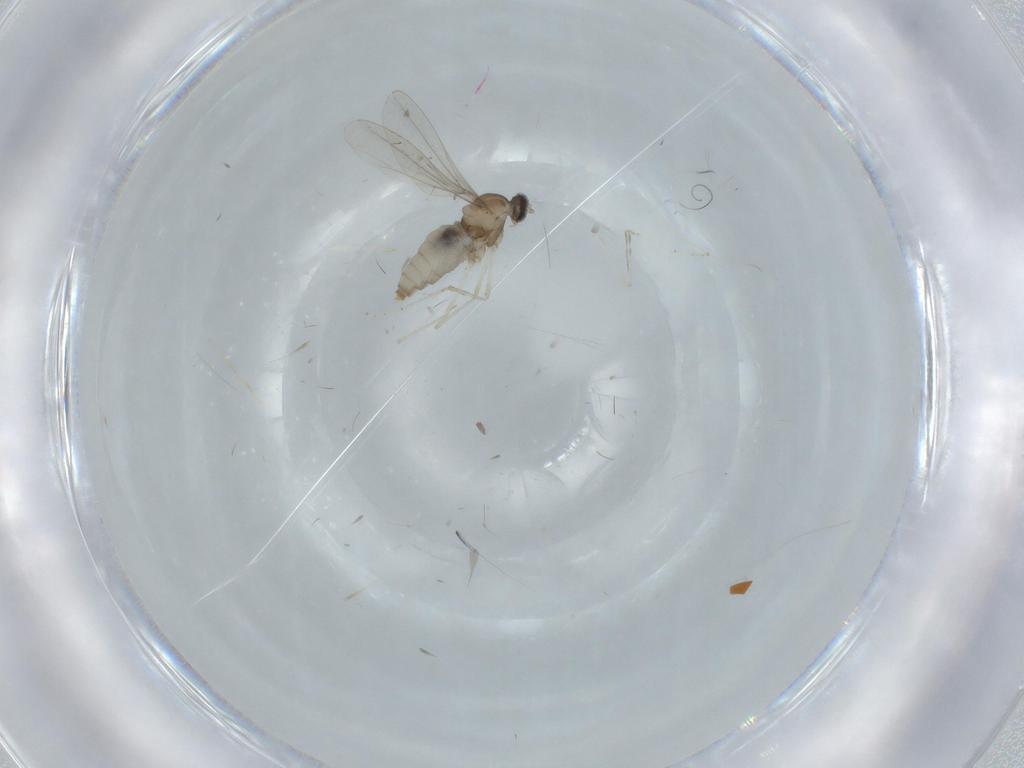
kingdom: Animalia
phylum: Arthropoda
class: Insecta
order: Diptera
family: Cecidomyiidae
